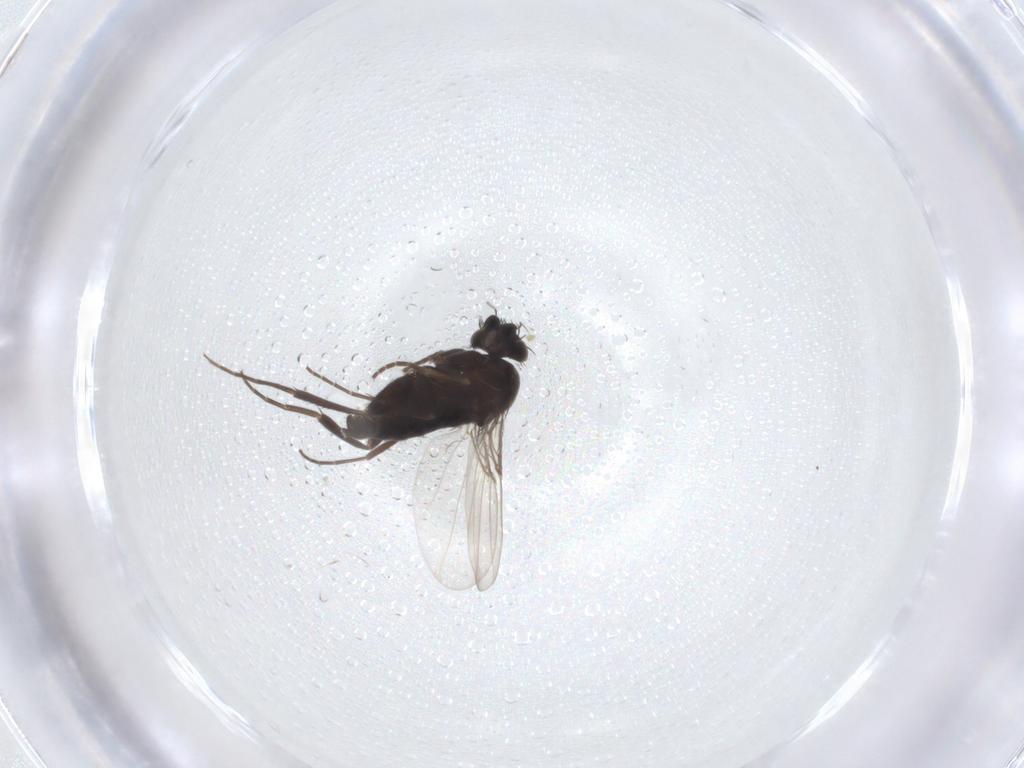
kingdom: Animalia
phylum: Arthropoda
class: Insecta
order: Diptera
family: Phoridae
